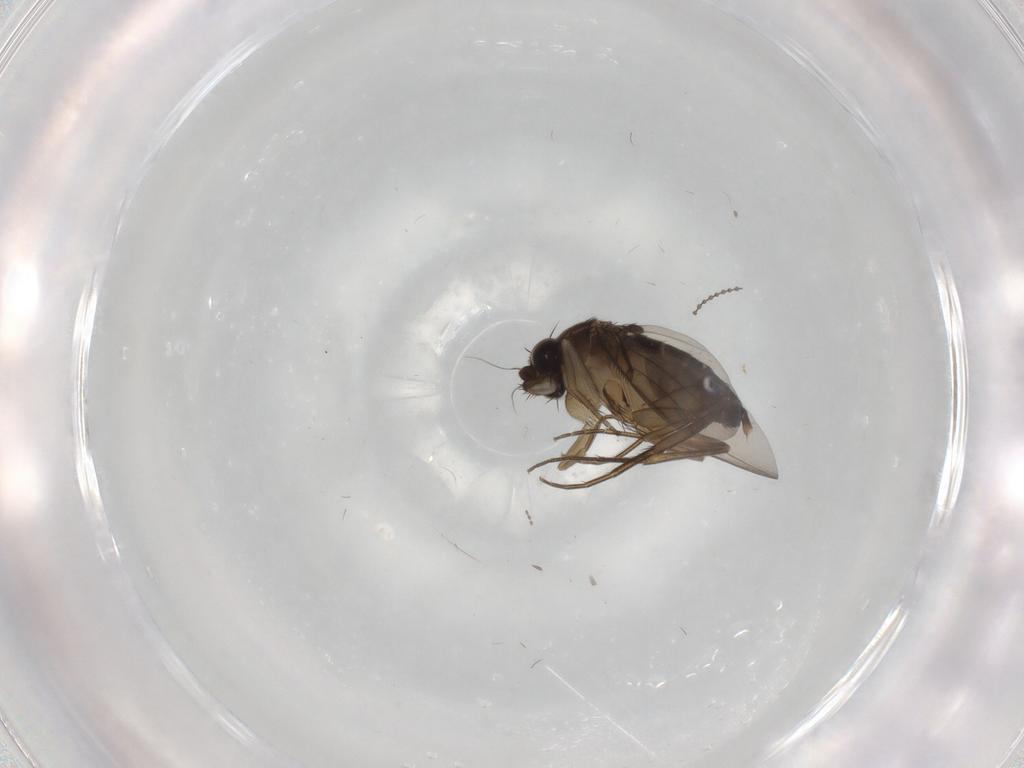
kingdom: Animalia
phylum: Arthropoda
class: Insecta
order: Diptera
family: Phoridae
